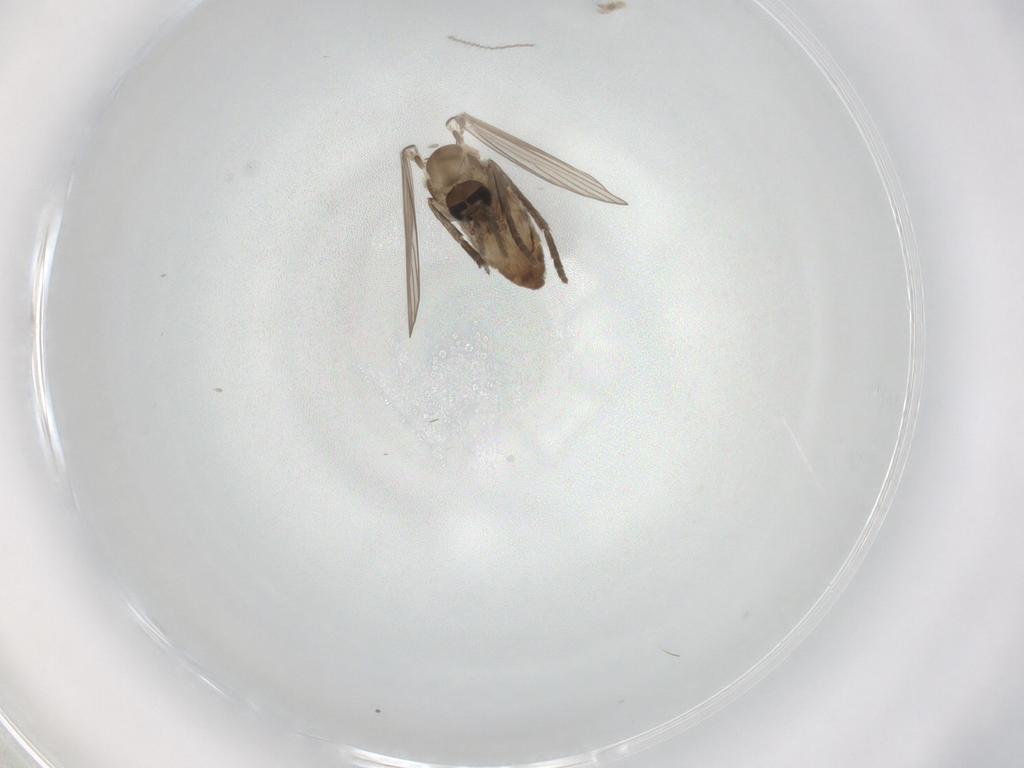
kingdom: Animalia
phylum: Arthropoda
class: Insecta
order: Diptera
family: Psychodidae
